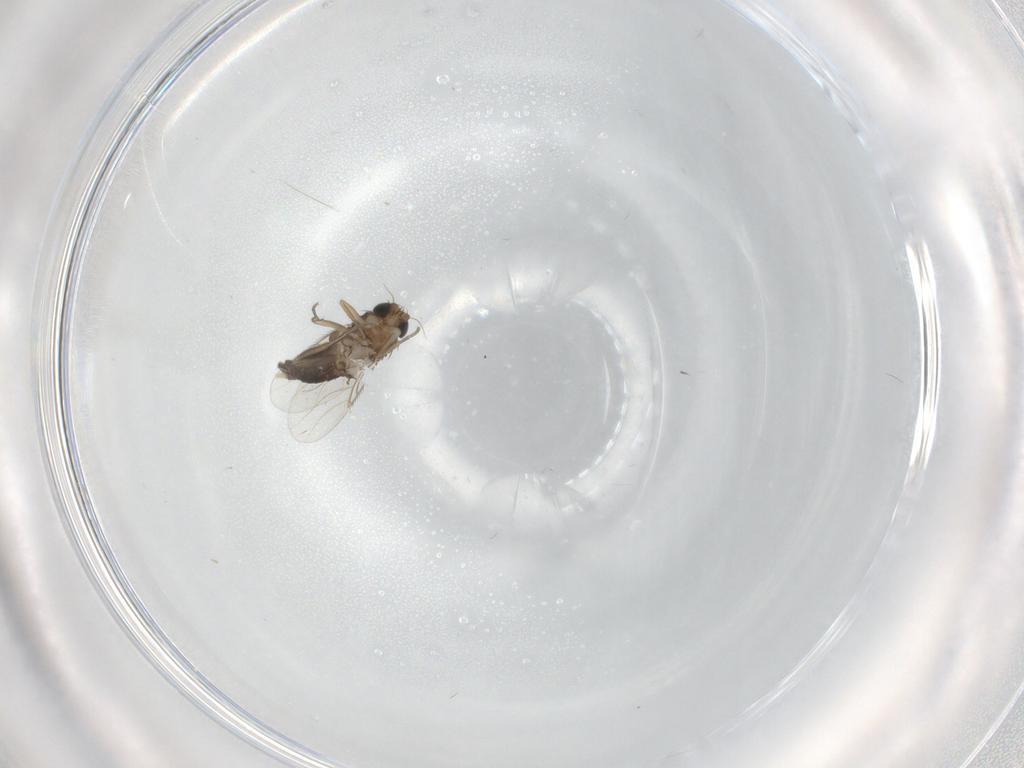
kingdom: Animalia
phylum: Arthropoda
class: Insecta
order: Diptera
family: Phoridae
